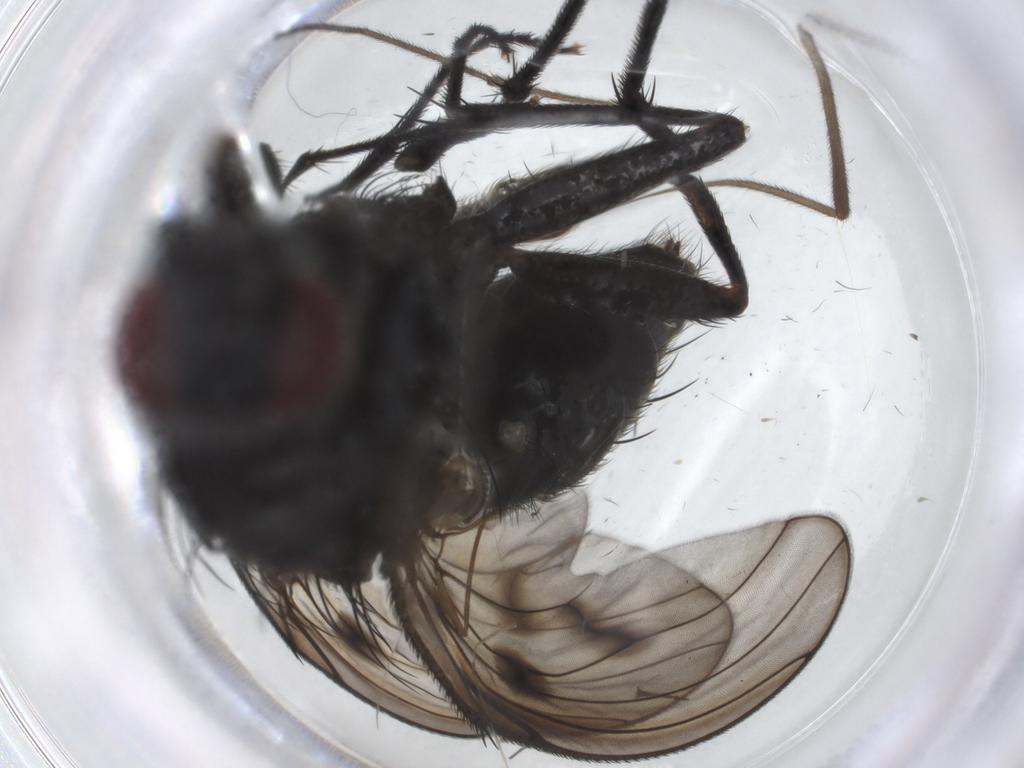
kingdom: Animalia
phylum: Arthropoda
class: Insecta
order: Diptera
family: Muscidae
